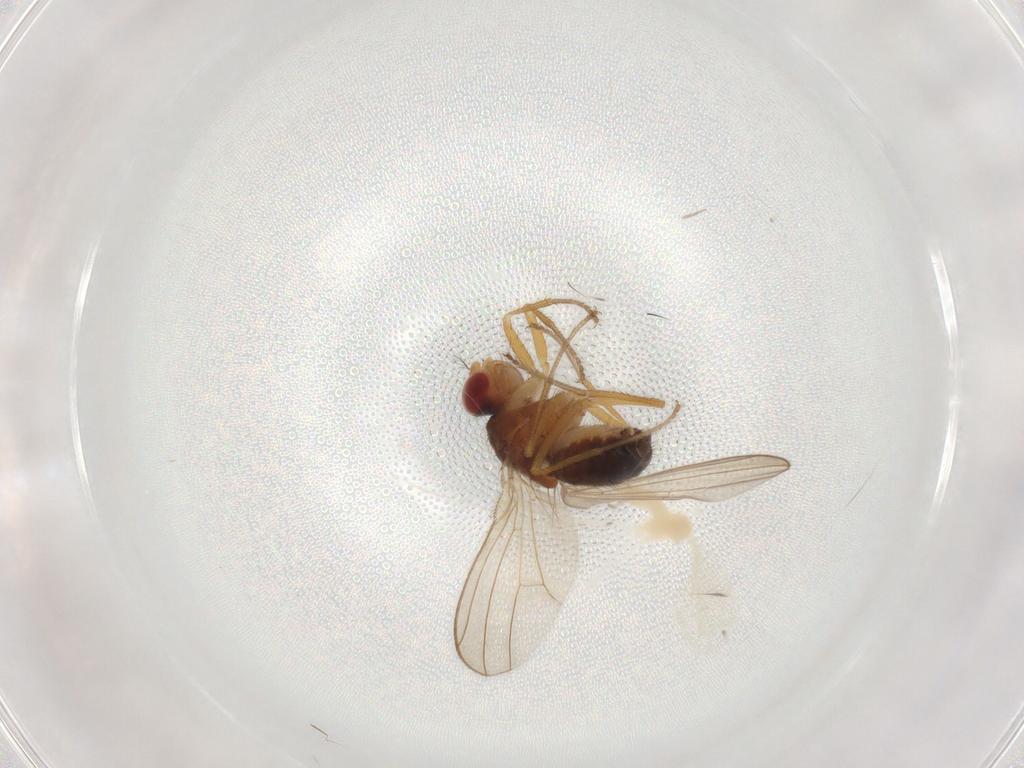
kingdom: Animalia
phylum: Arthropoda
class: Insecta
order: Diptera
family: Drosophilidae
